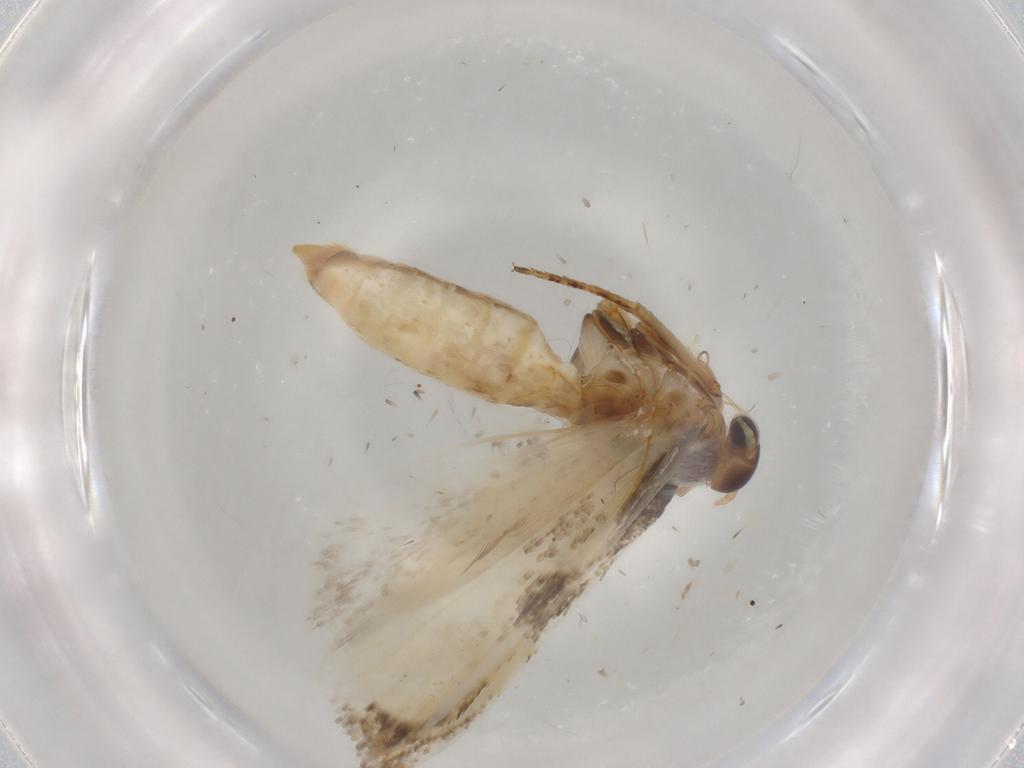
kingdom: Animalia
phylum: Arthropoda
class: Insecta
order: Lepidoptera
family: Nepticulidae
